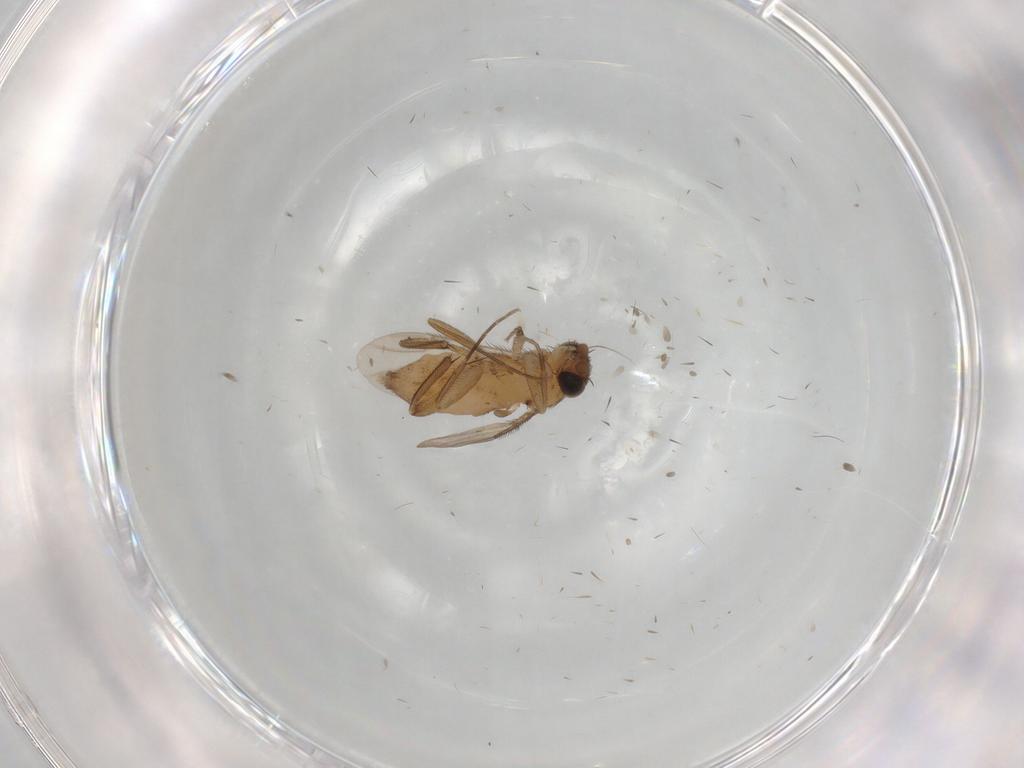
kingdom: Animalia
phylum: Arthropoda
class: Insecta
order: Diptera
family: Phoridae
